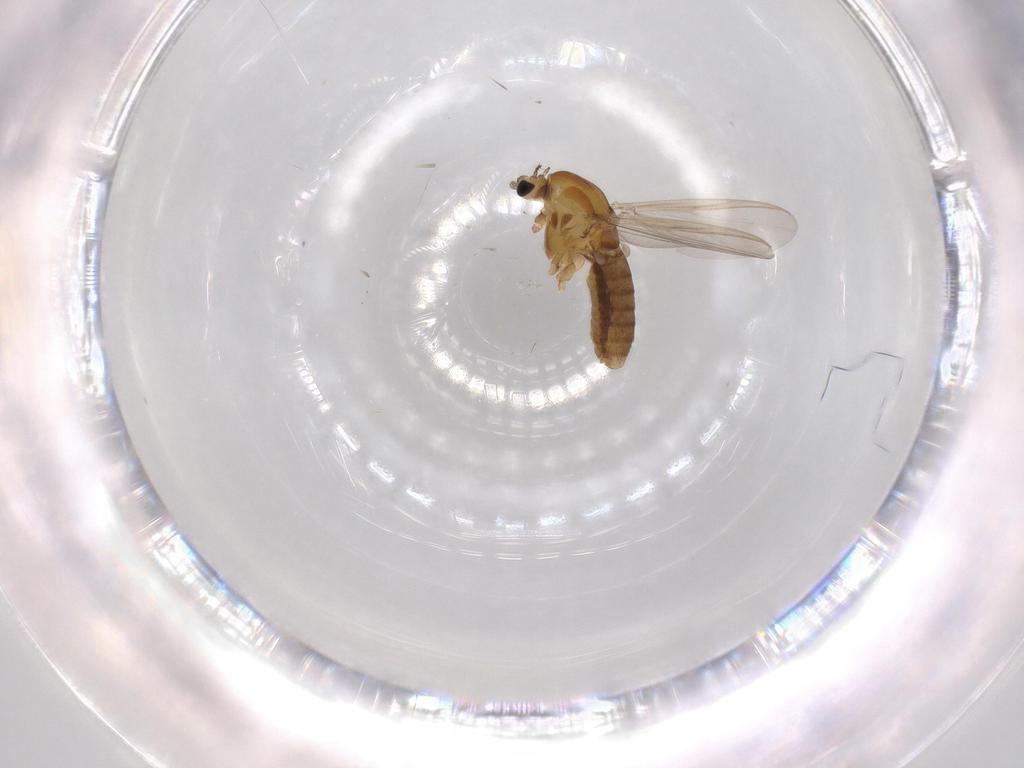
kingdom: Animalia
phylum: Arthropoda
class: Insecta
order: Diptera
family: Chironomidae
